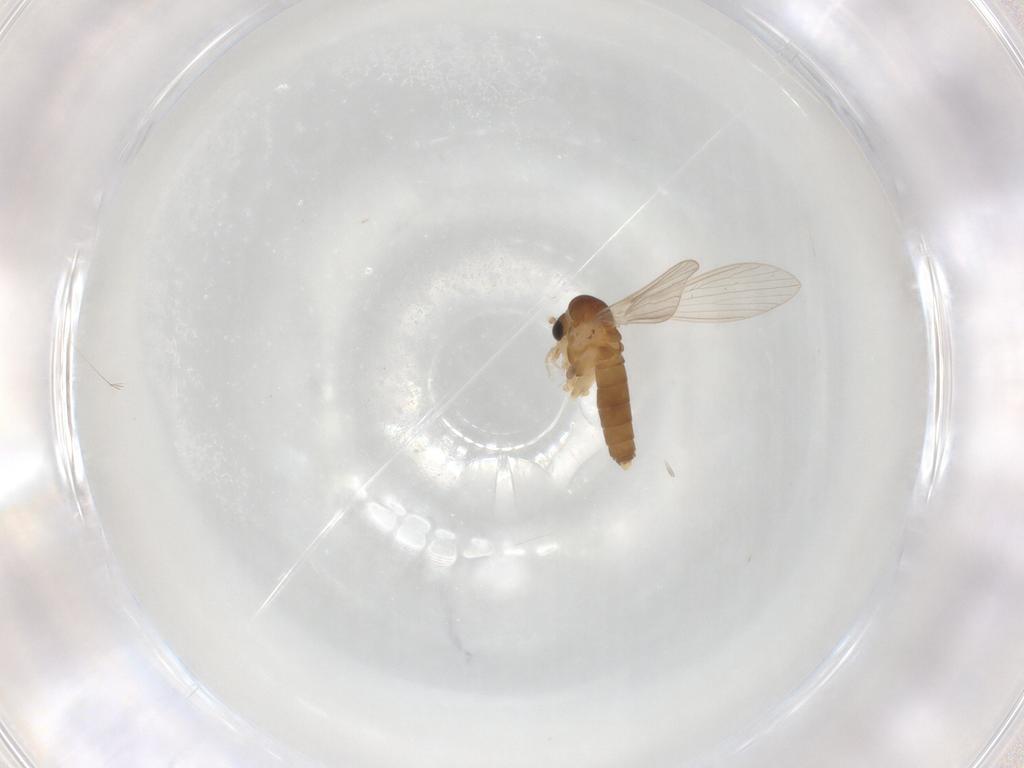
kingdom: Animalia
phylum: Arthropoda
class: Insecta
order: Diptera
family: Psychodidae
